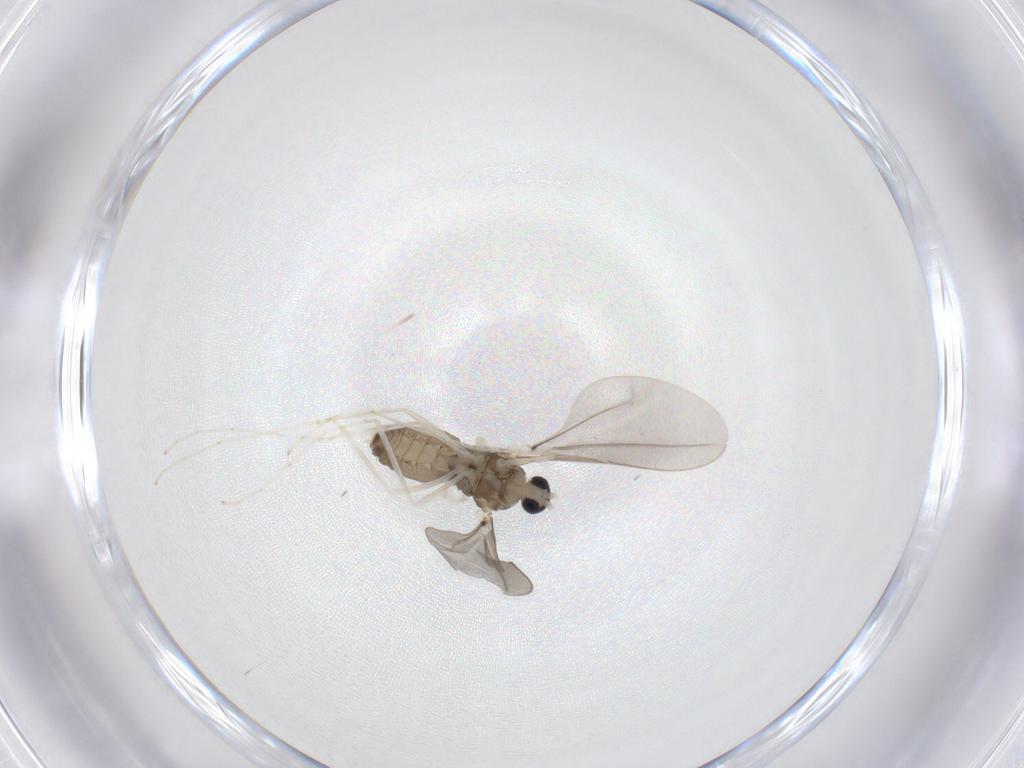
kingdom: Animalia
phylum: Arthropoda
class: Insecta
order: Diptera
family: Cecidomyiidae
